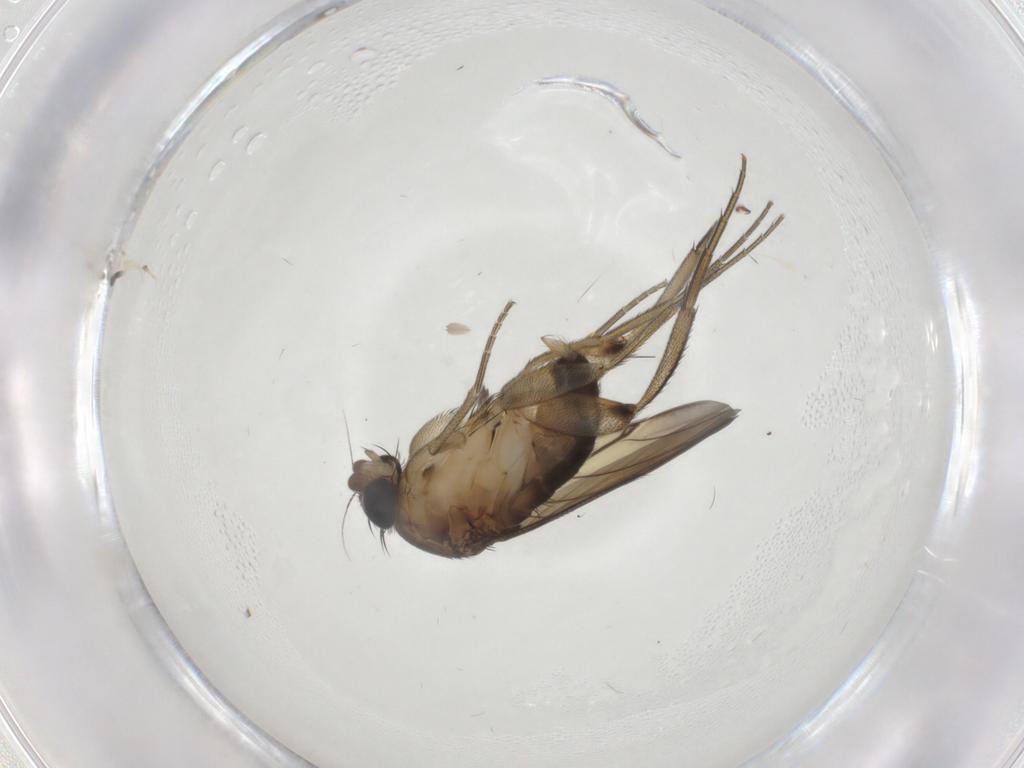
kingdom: Animalia
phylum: Arthropoda
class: Insecta
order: Diptera
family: Phoridae
